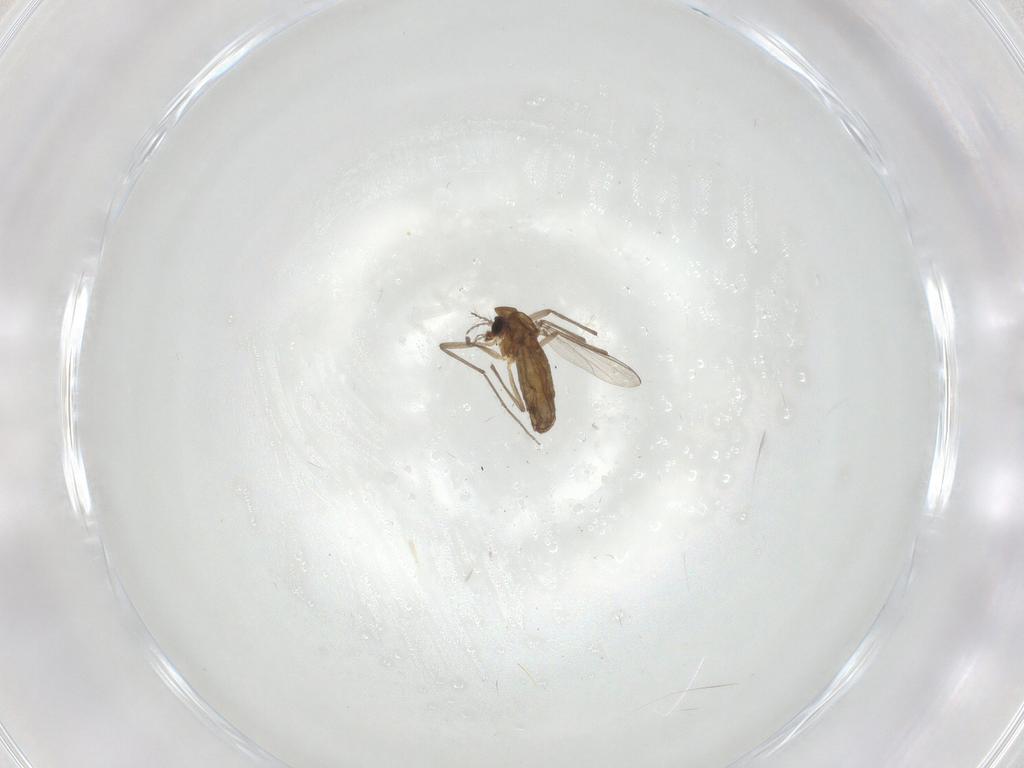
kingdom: Animalia
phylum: Arthropoda
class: Insecta
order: Diptera
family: Chironomidae
